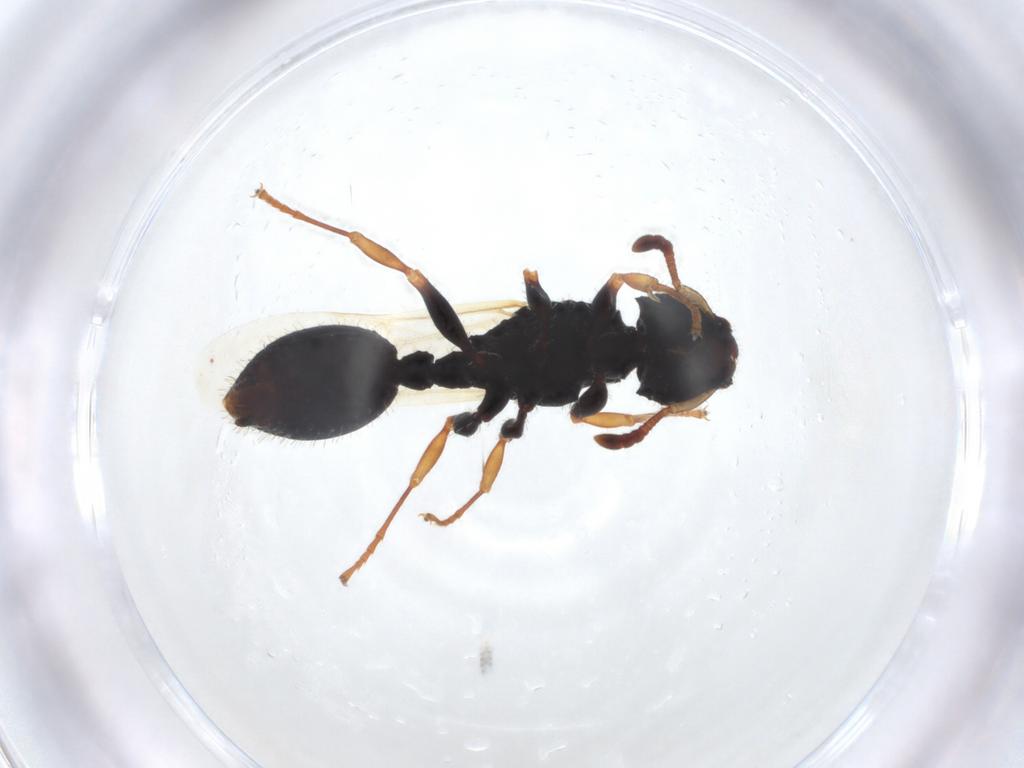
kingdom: Animalia
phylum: Arthropoda
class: Insecta
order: Hymenoptera
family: Formicidae
